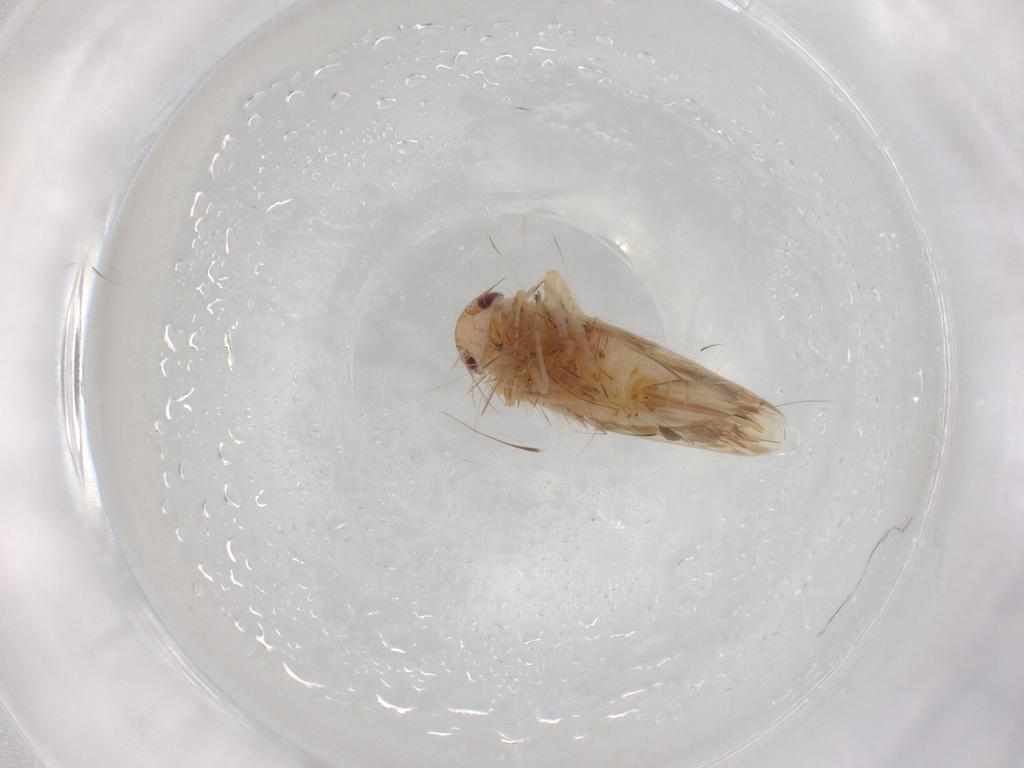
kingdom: Animalia
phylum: Arthropoda
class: Insecta
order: Hemiptera
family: Cicadellidae
